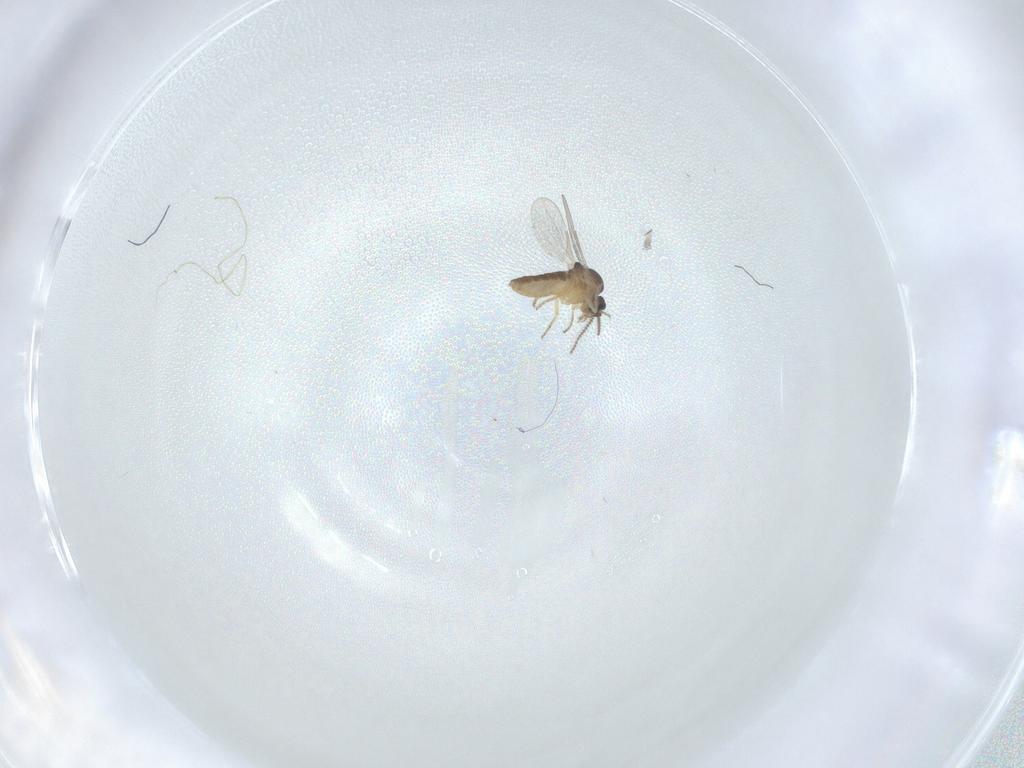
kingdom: Animalia
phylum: Arthropoda
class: Insecta
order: Diptera
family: Ceratopogonidae
